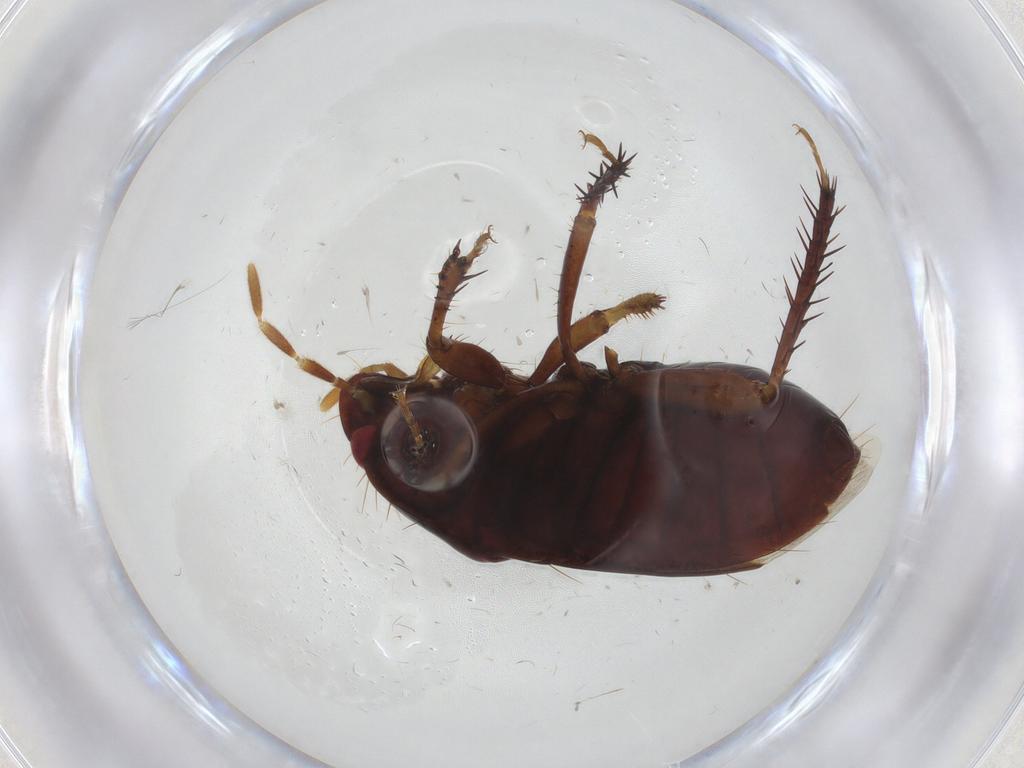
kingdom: Animalia
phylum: Arthropoda
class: Insecta
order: Hemiptera
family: Cydnidae
